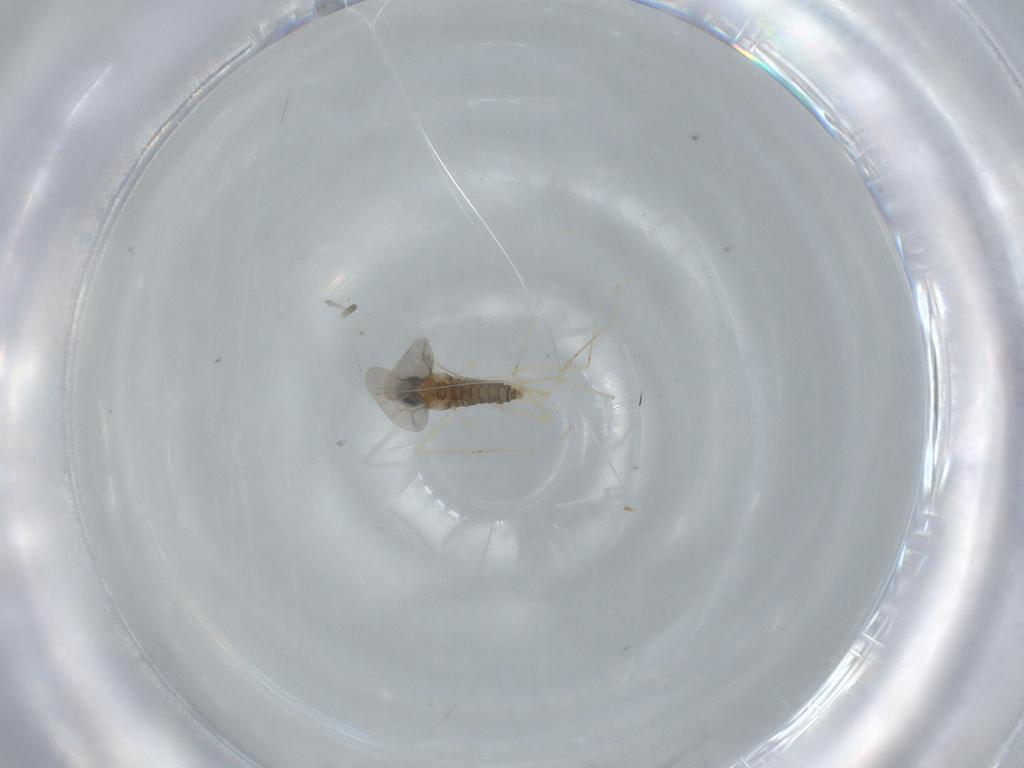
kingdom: Animalia
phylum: Arthropoda
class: Insecta
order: Diptera
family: Cecidomyiidae
